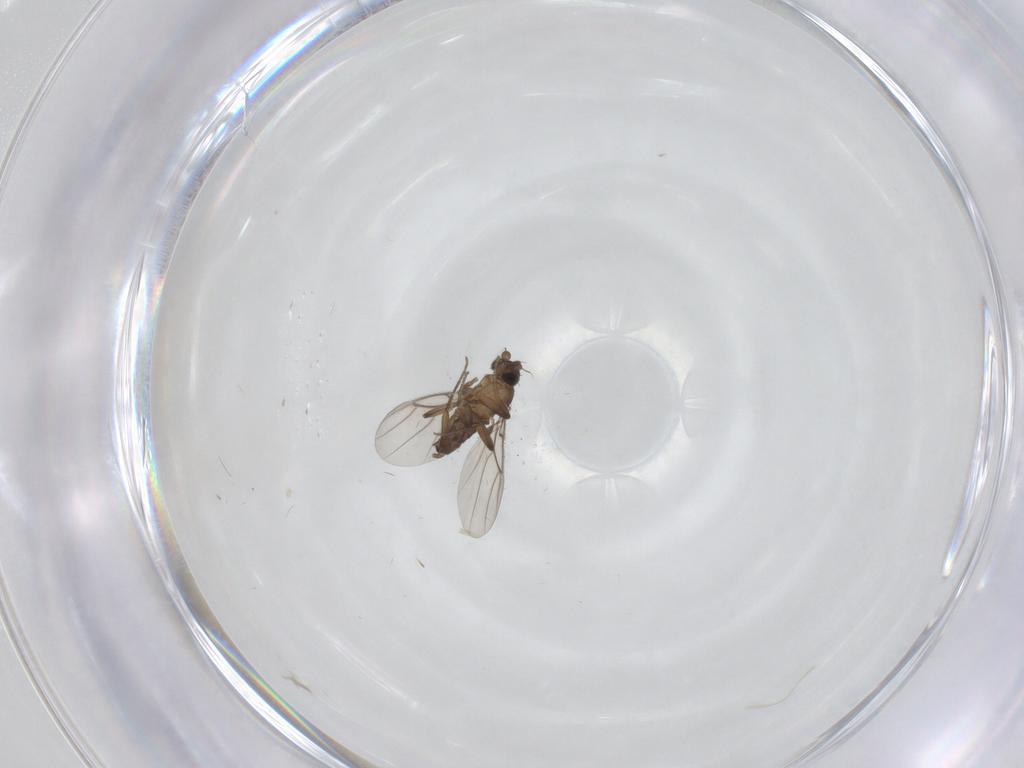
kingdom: Animalia
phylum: Arthropoda
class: Insecta
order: Diptera
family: Phoridae
